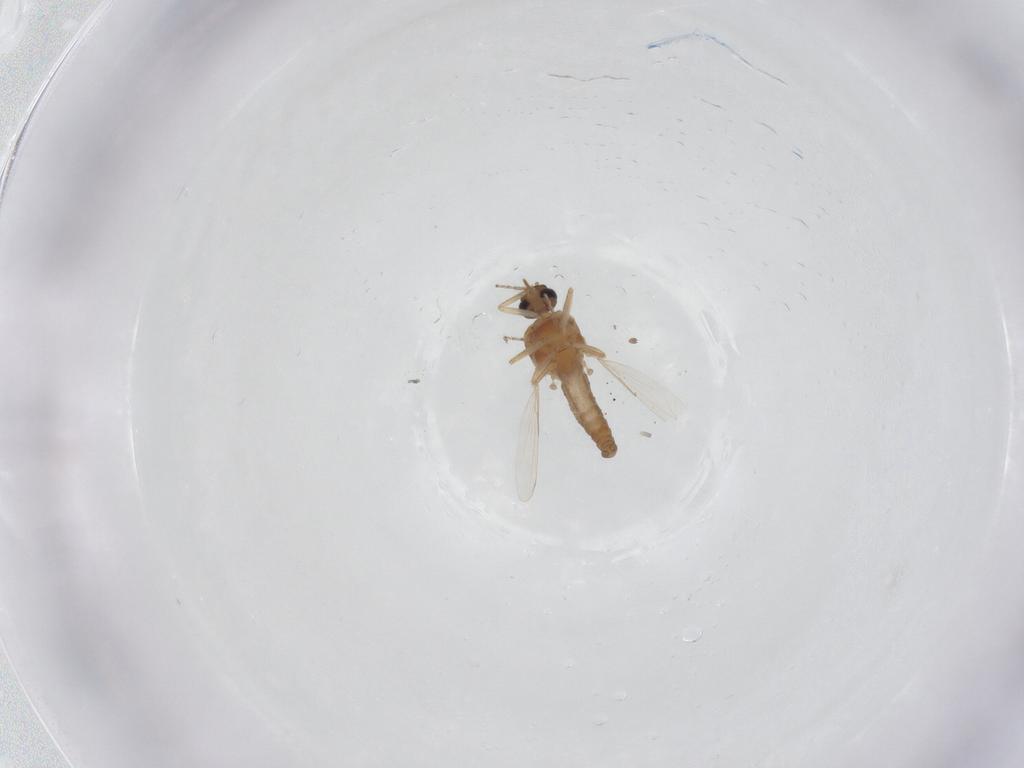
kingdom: Animalia
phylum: Arthropoda
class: Insecta
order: Diptera
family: Ceratopogonidae
